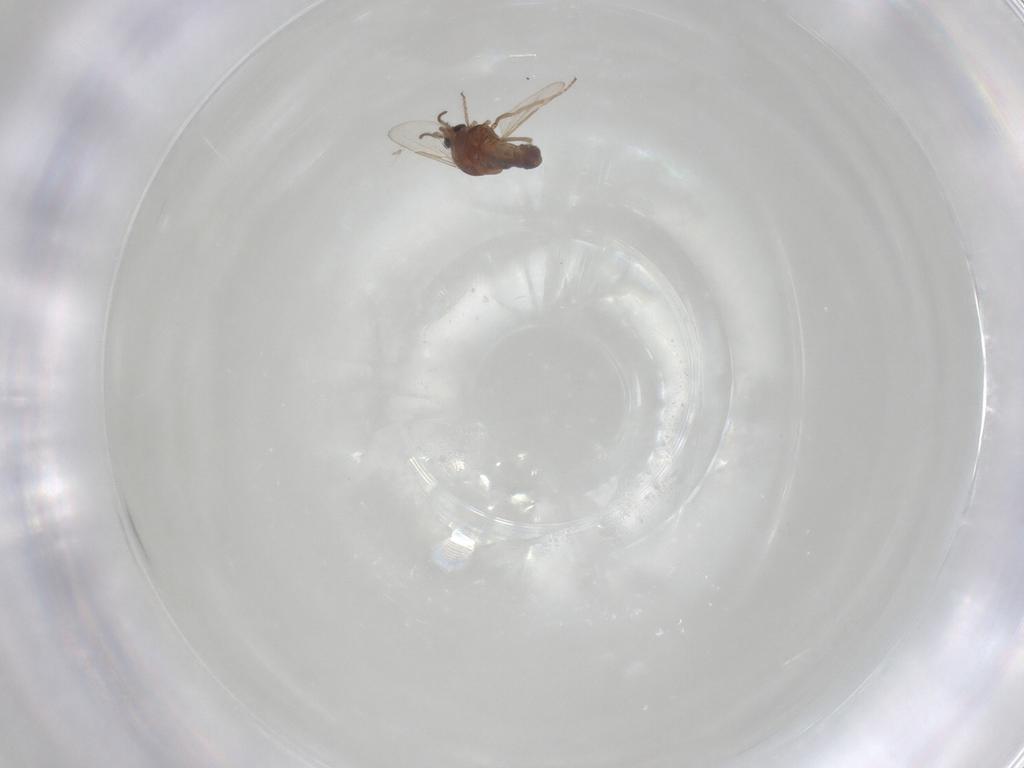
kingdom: Animalia
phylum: Arthropoda
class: Insecta
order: Diptera
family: Ceratopogonidae
